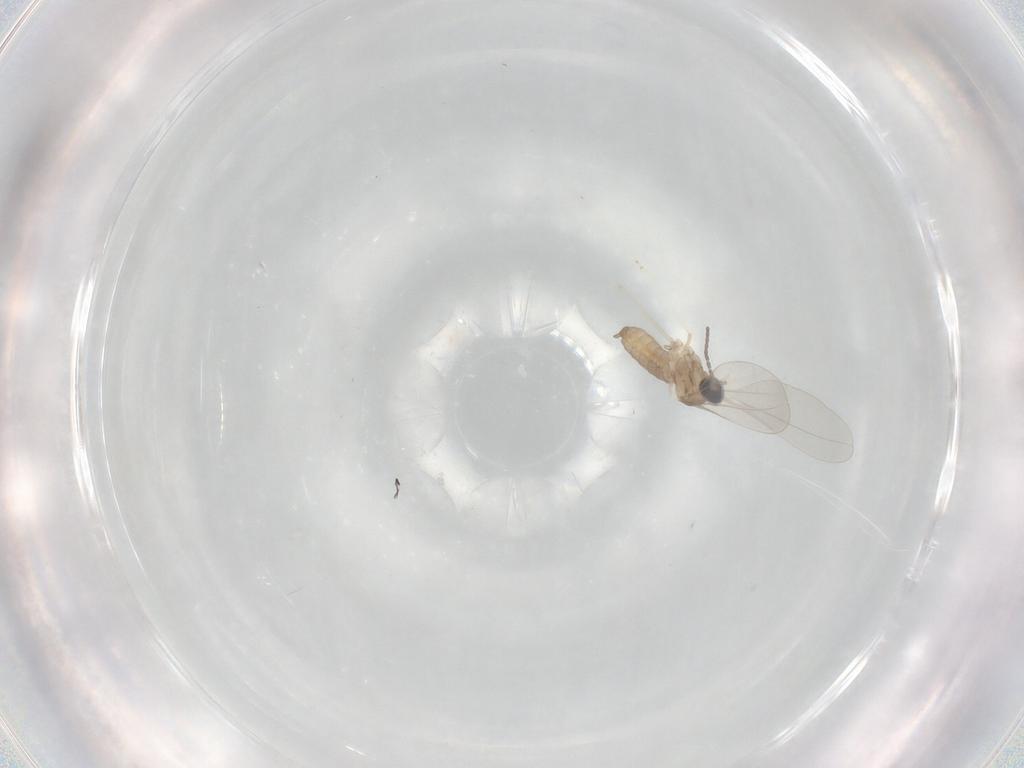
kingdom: Animalia
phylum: Arthropoda
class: Insecta
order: Diptera
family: Cecidomyiidae
